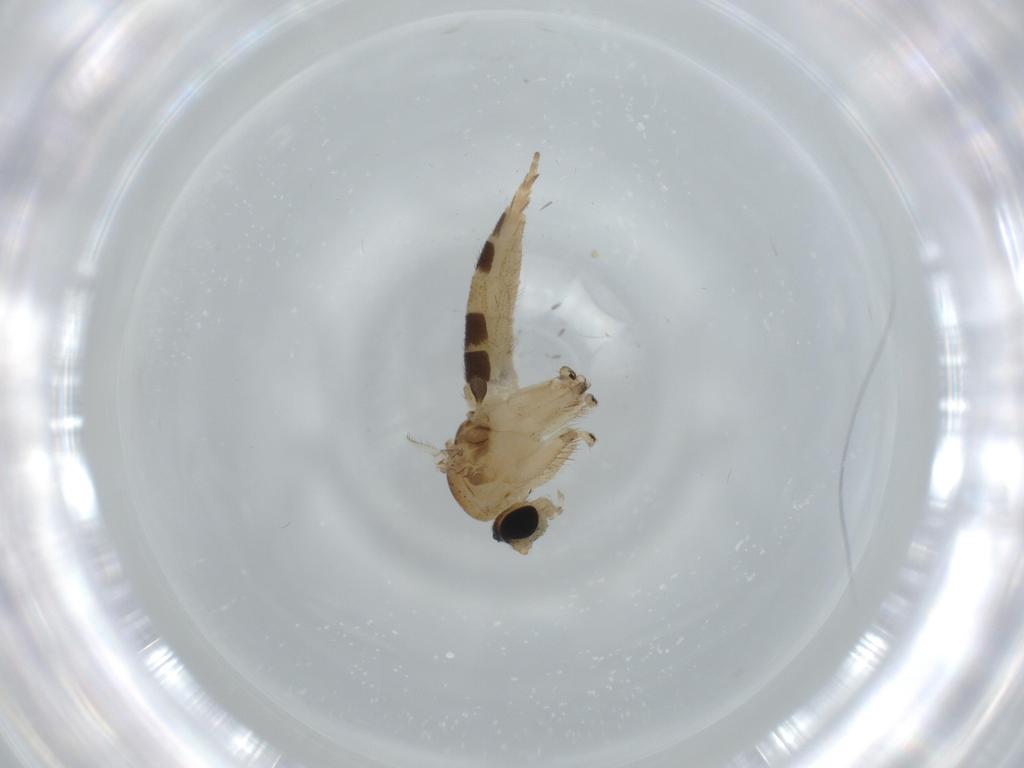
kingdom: Animalia
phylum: Arthropoda
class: Insecta
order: Diptera
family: Sciaridae
